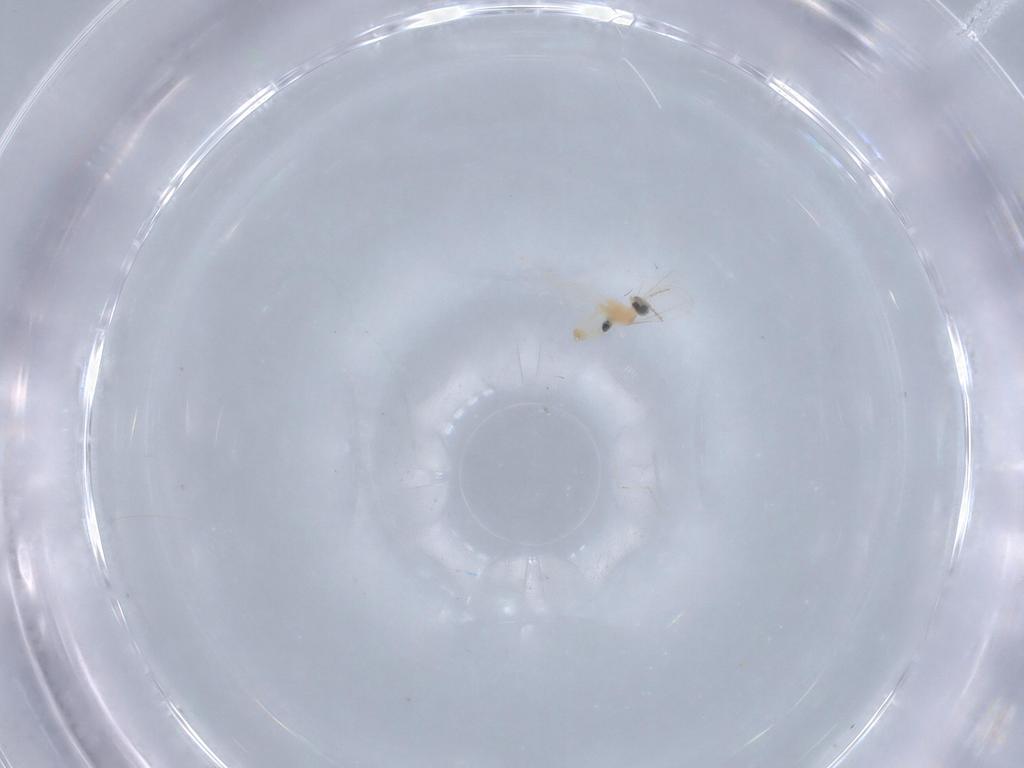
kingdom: Animalia
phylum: Arthropoda
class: Insecta
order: Diptera
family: Cecidomyiidae
